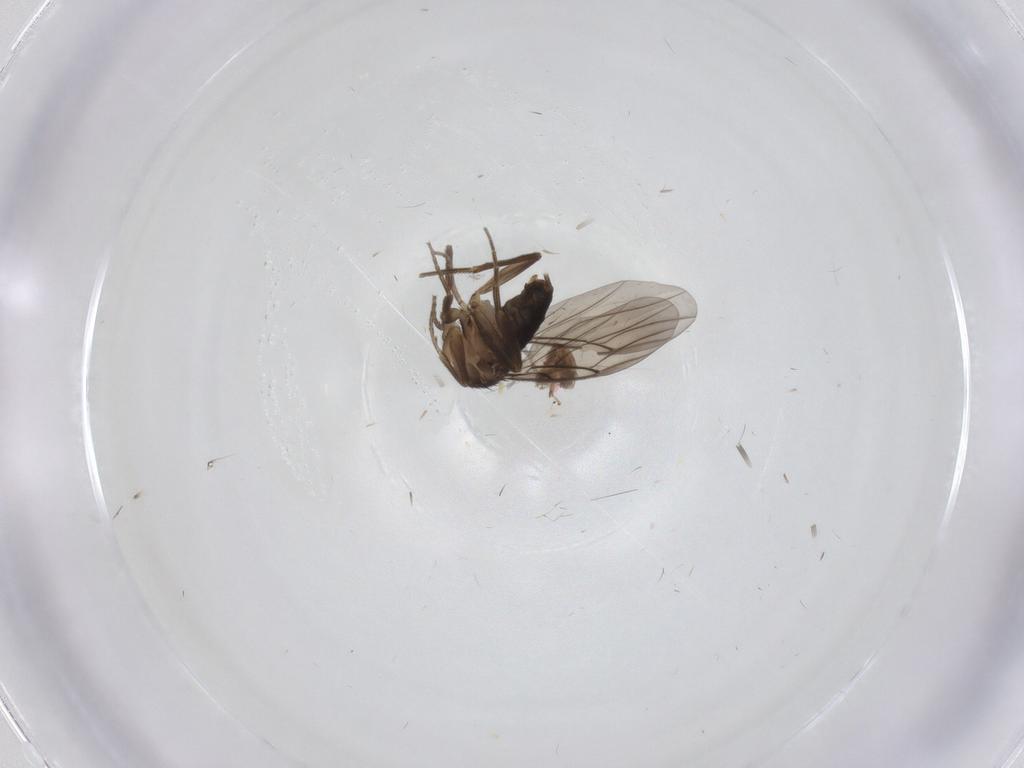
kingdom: Animalia
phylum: Arthropoda
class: Insecta
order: Diptera
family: Phoridae
